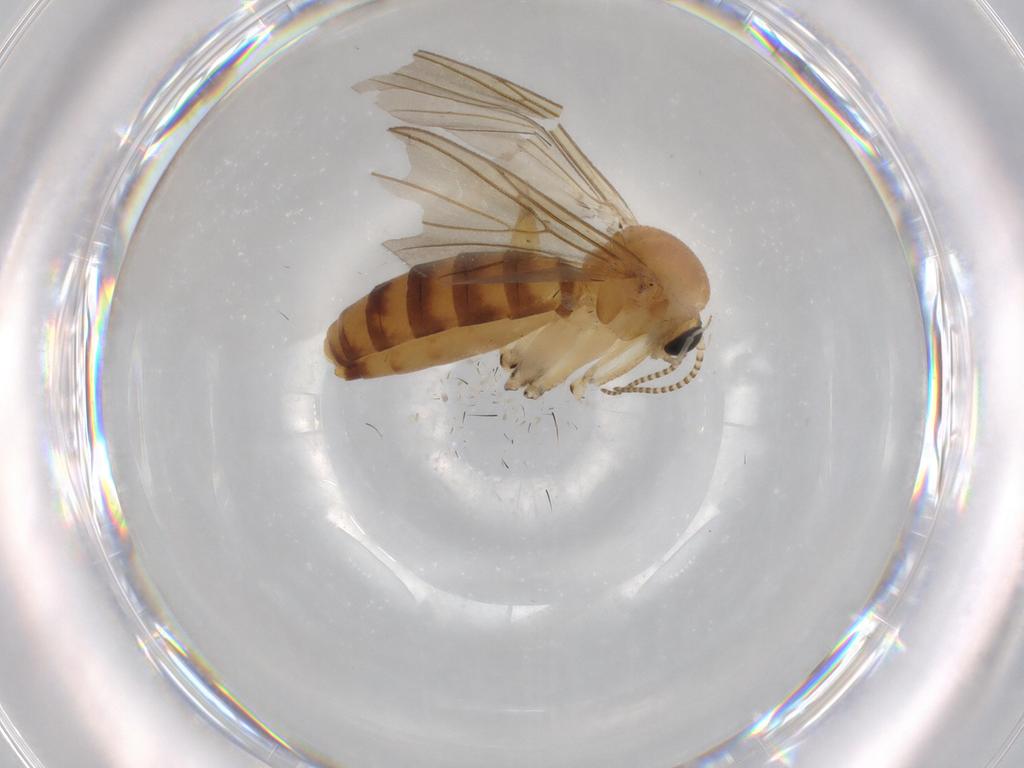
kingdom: Animalia
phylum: Arthropoda
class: Insecta
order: Diptera
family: Mycetophilidae
